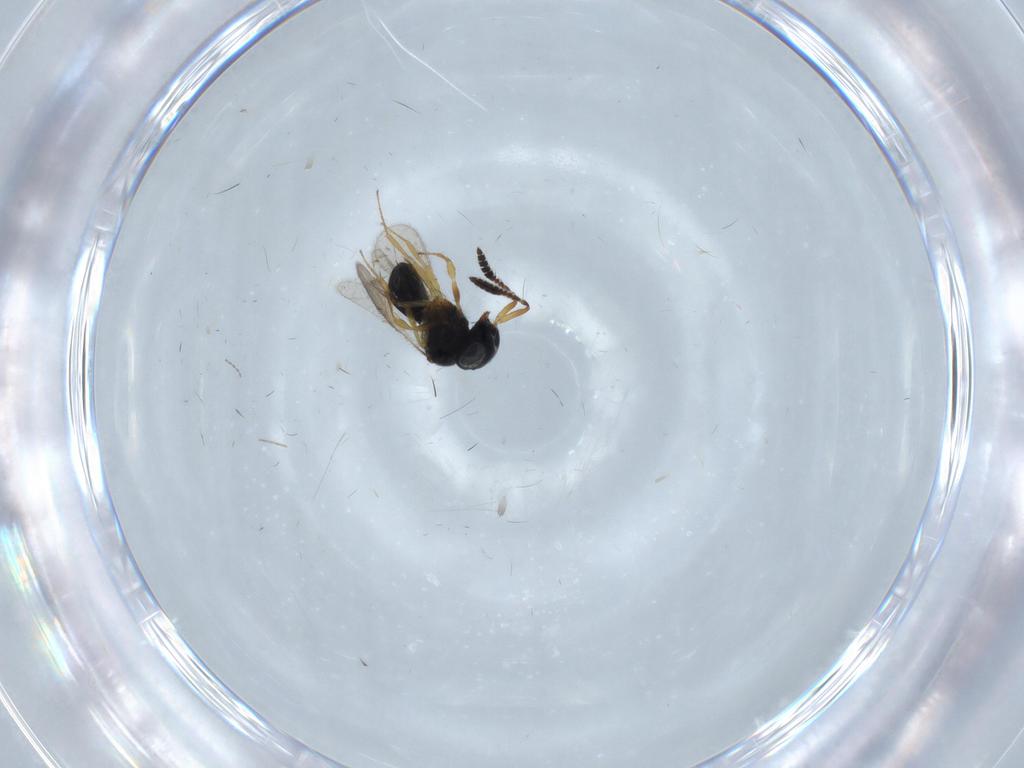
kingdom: Animalia
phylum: Arthropoda
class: Insecta
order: Hymenoptera
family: Scelionidae
